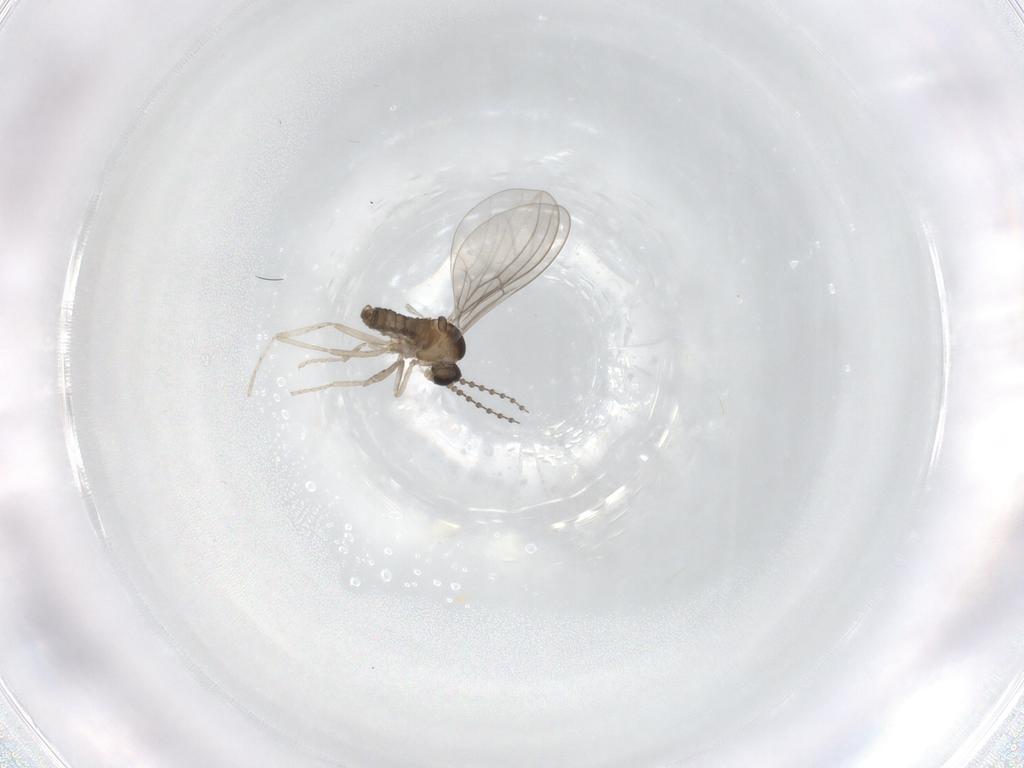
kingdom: Animalia
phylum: Arthropoda
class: Insecta
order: Diptera
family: Cecidomyiidae
